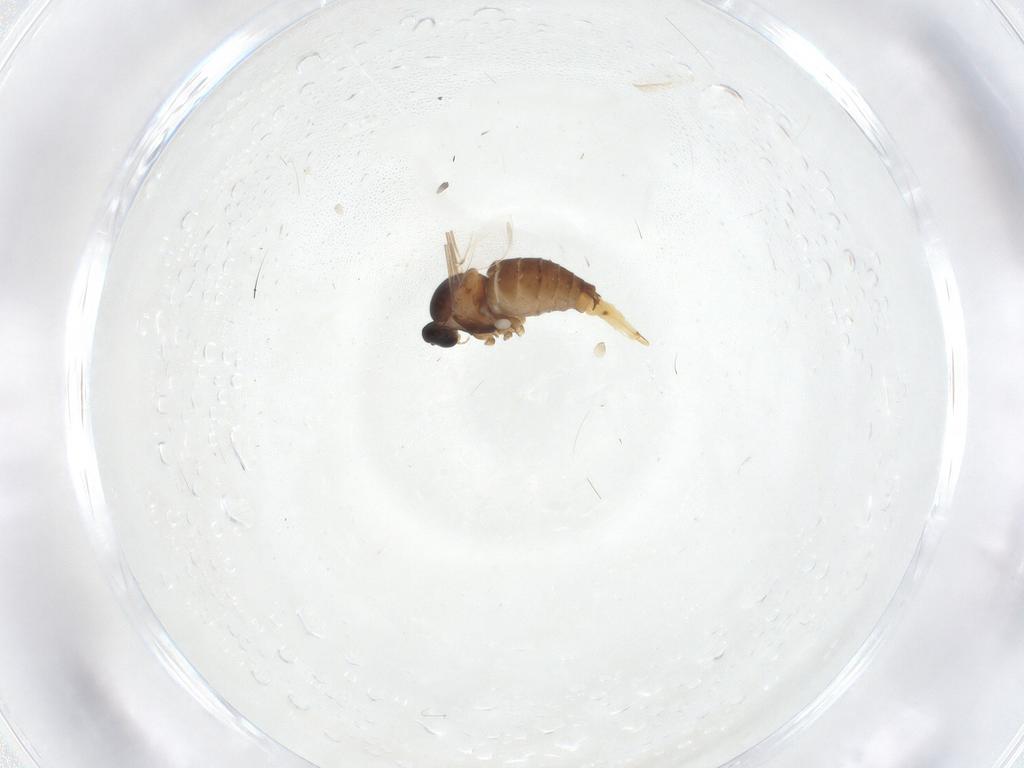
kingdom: Animalia
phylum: Arthropoda
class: Insecta
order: Diptera
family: Cecidomyiidae
